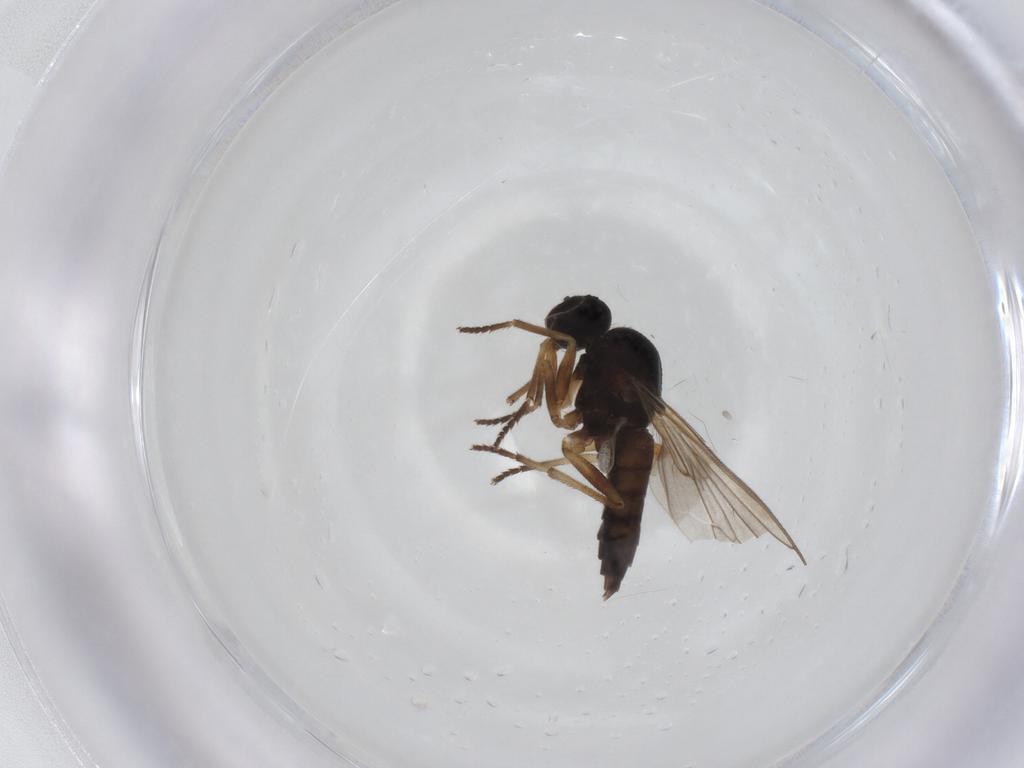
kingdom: Animalia
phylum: Arthropoda
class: Insecta
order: Diptera
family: Empididae
